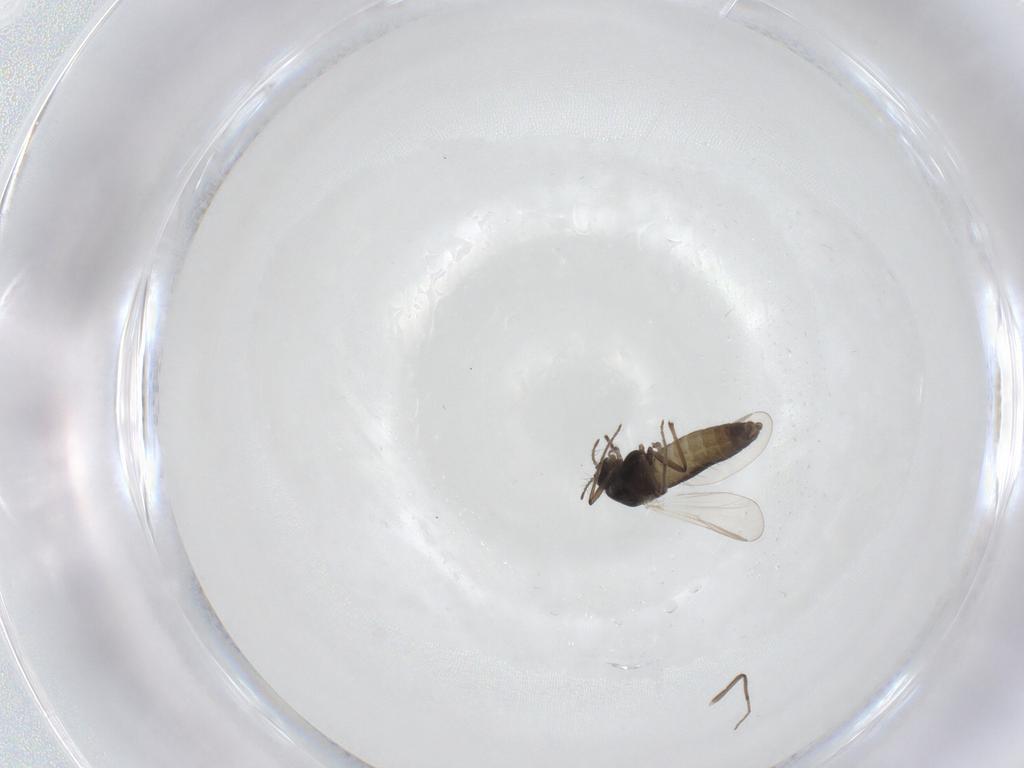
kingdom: Animalia
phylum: Arthropoda
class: Insecta
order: Diptera
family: Chironomidae
